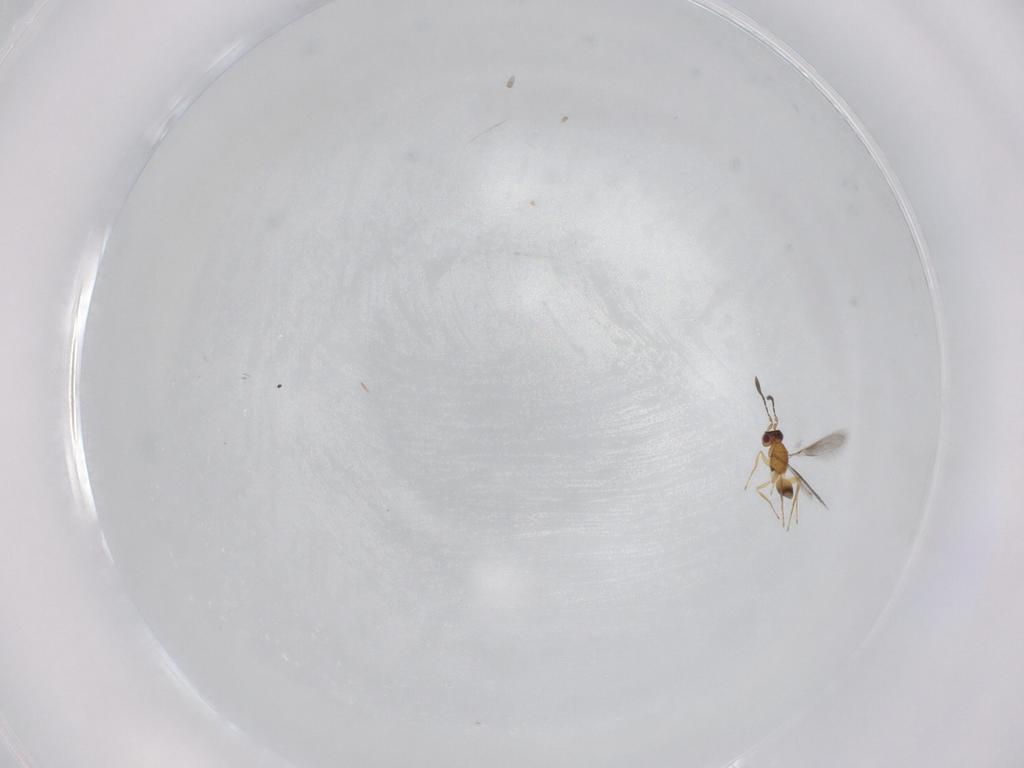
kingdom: Animalia
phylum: Arthropoda
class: Insecta
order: Hymenoptera
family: Mymaridae
